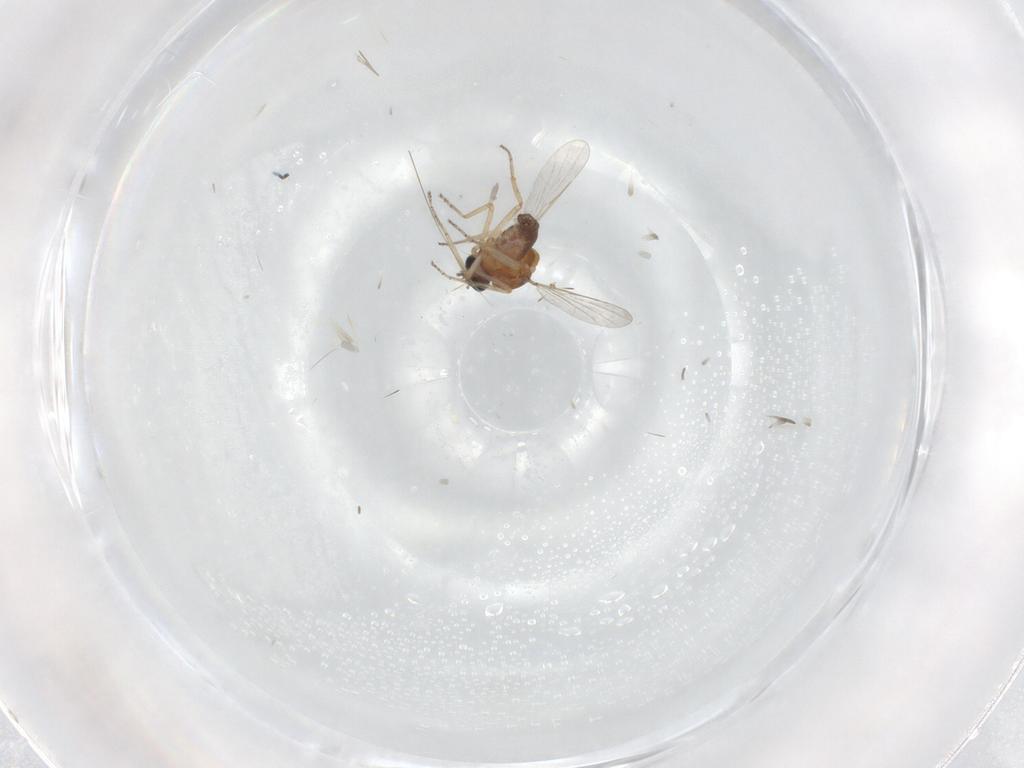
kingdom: Animalia
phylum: Arthropoda
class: Insecta
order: Diptera
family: Ceratopogonidae
